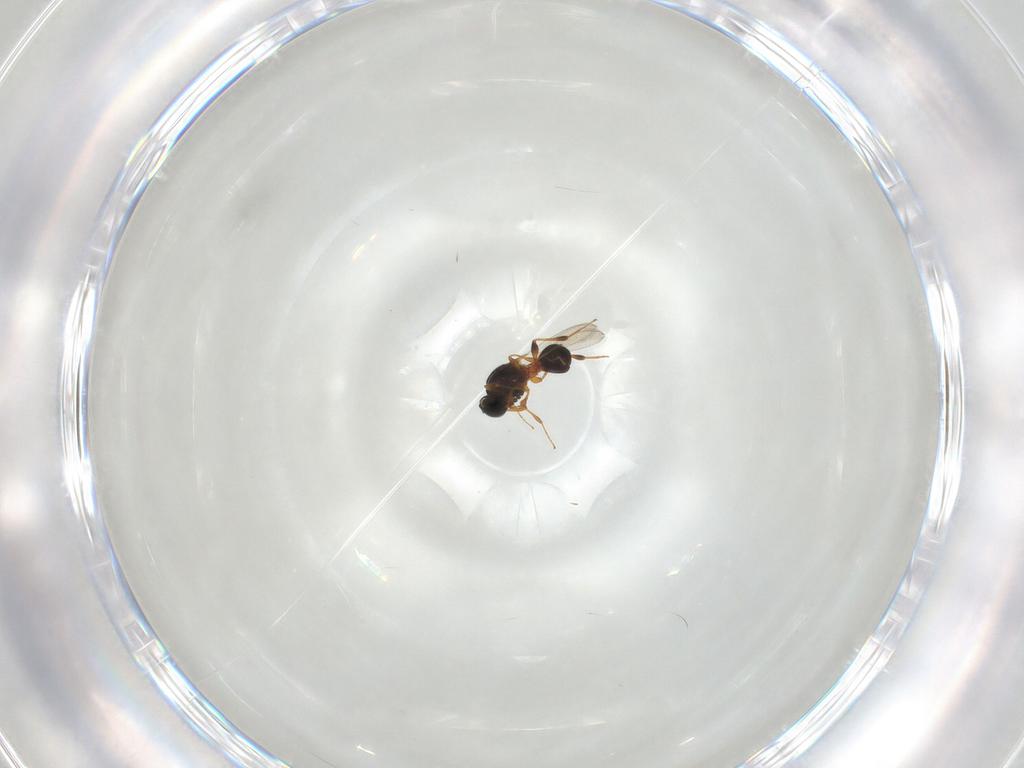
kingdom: Animalia
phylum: Arthropoda
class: Insecta
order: Hymenoptera
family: Platygastridae
